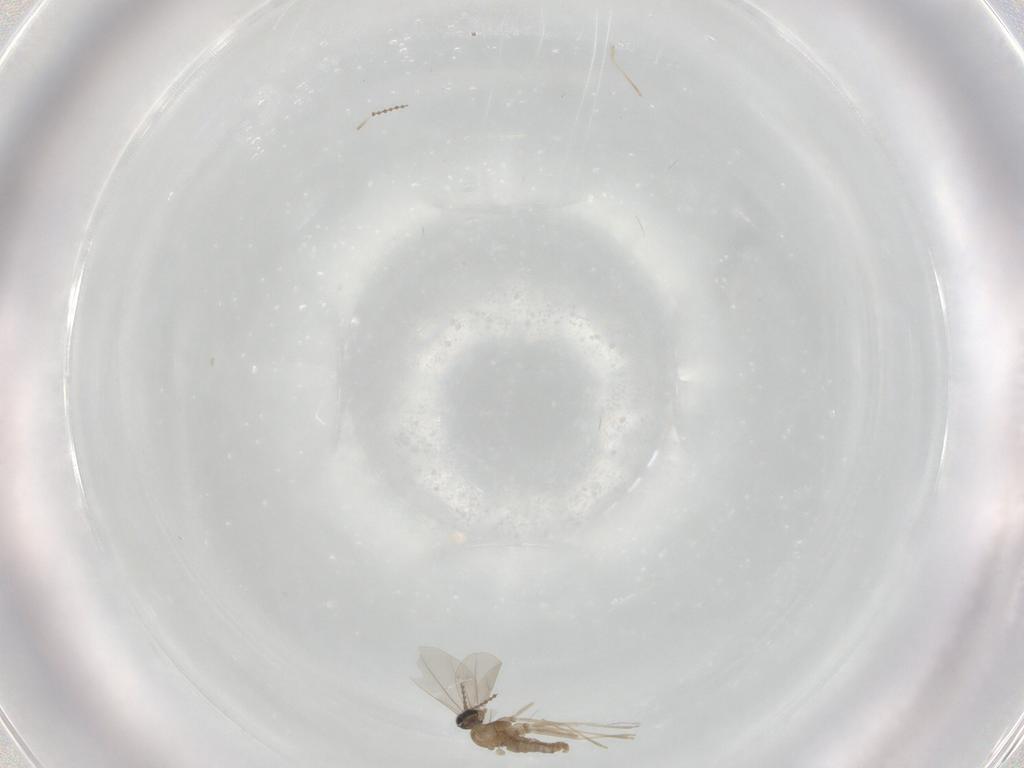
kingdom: Animalia
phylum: Arthropoda
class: Insecta
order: Diptera
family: Cecidomyiidae
